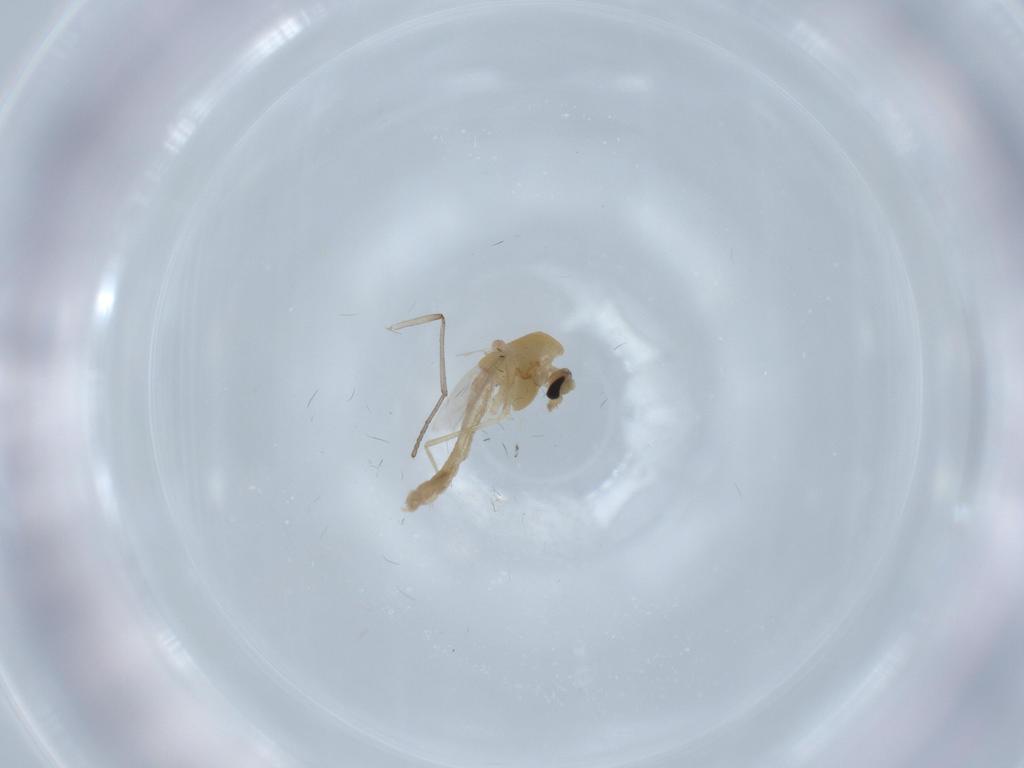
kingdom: Animalia
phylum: Arthropoda
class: Insecta
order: Diptera
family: Chironomidae
